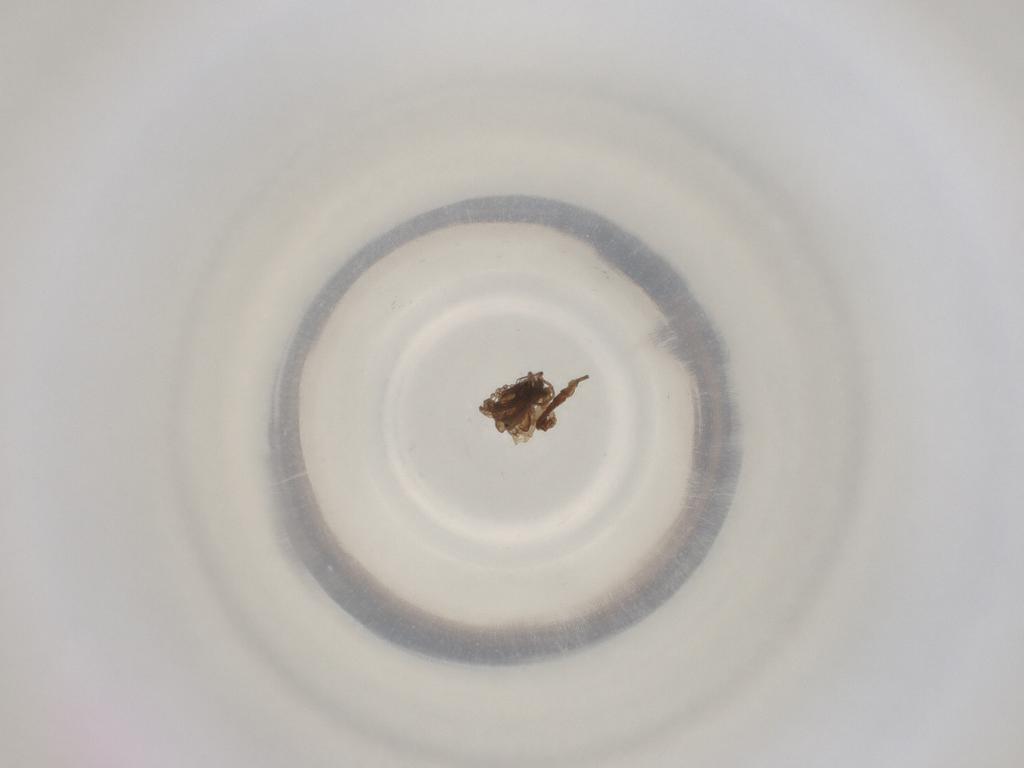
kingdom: Animalia
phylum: Arthropoda
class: Insecta
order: Diptera
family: Cecidomyiidae
